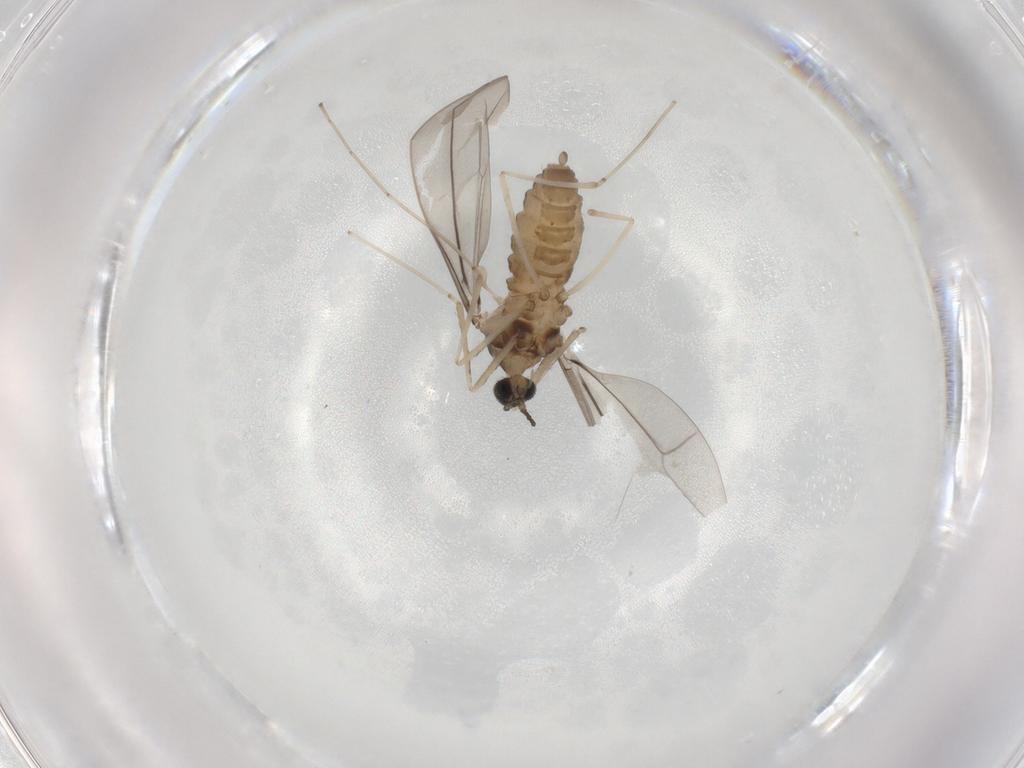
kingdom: Animalia
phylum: Arthropoda
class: Insecta
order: Diptera
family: Cecidomyiidae
